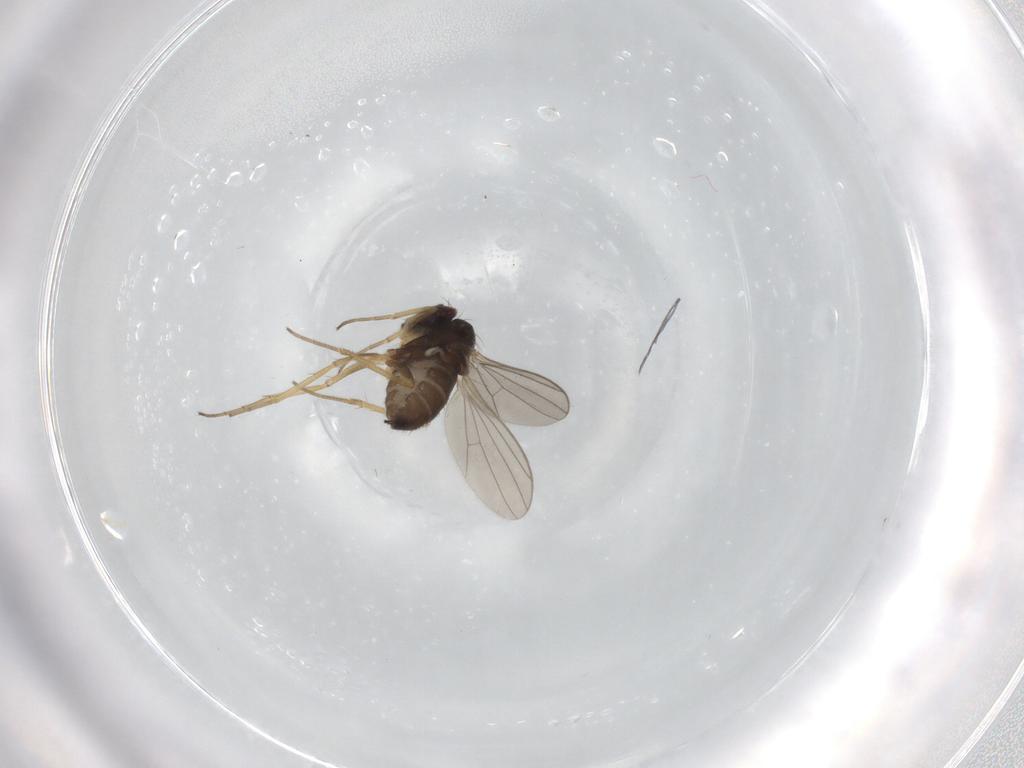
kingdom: Animalia
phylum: Arthropoda
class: Insecta
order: Diptera
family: Dolichopodidae
